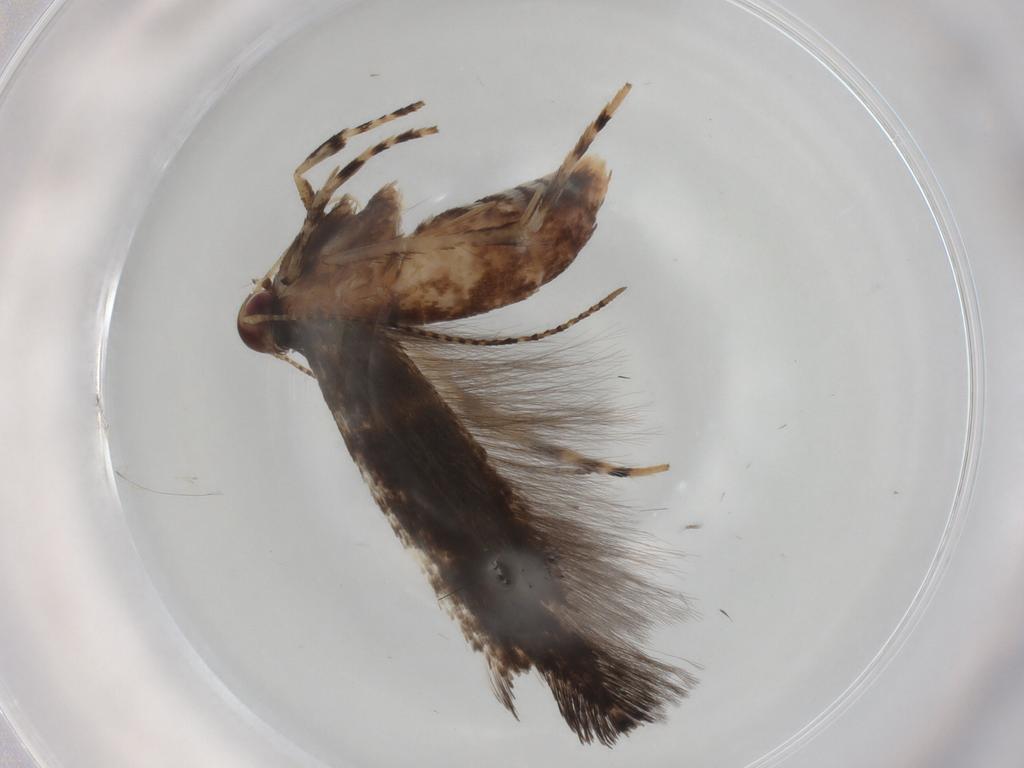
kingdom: Animalia
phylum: Arthropoda
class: Insecta
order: Lepidoptera
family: Cosmopterigidae
